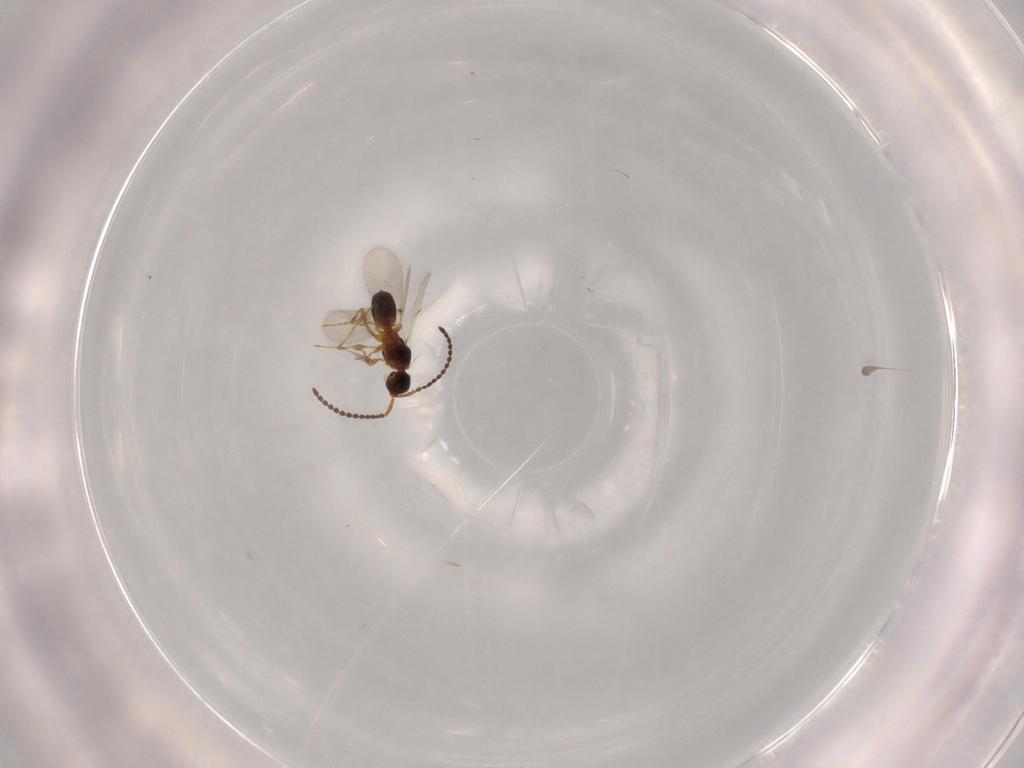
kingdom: Animalia
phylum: Arthropoda
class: Insecta
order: Hymenoptera
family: Diapriidae
